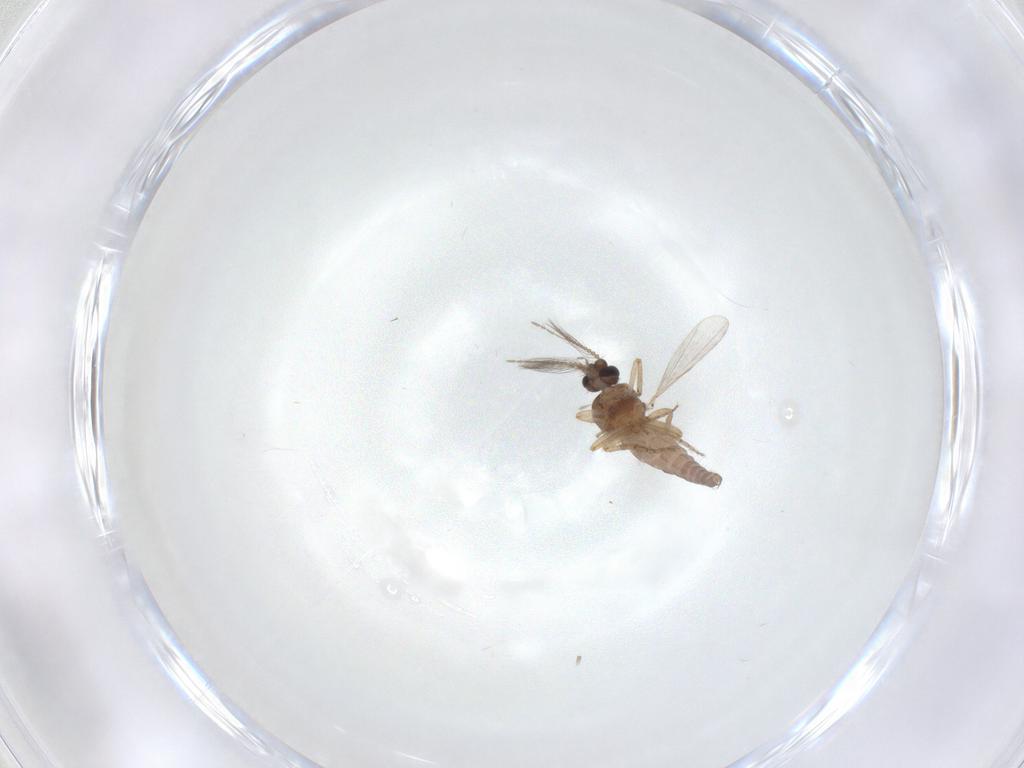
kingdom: Animalia
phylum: Arthropoda
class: Insecta
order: Diptera
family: Ceratopogonidae
